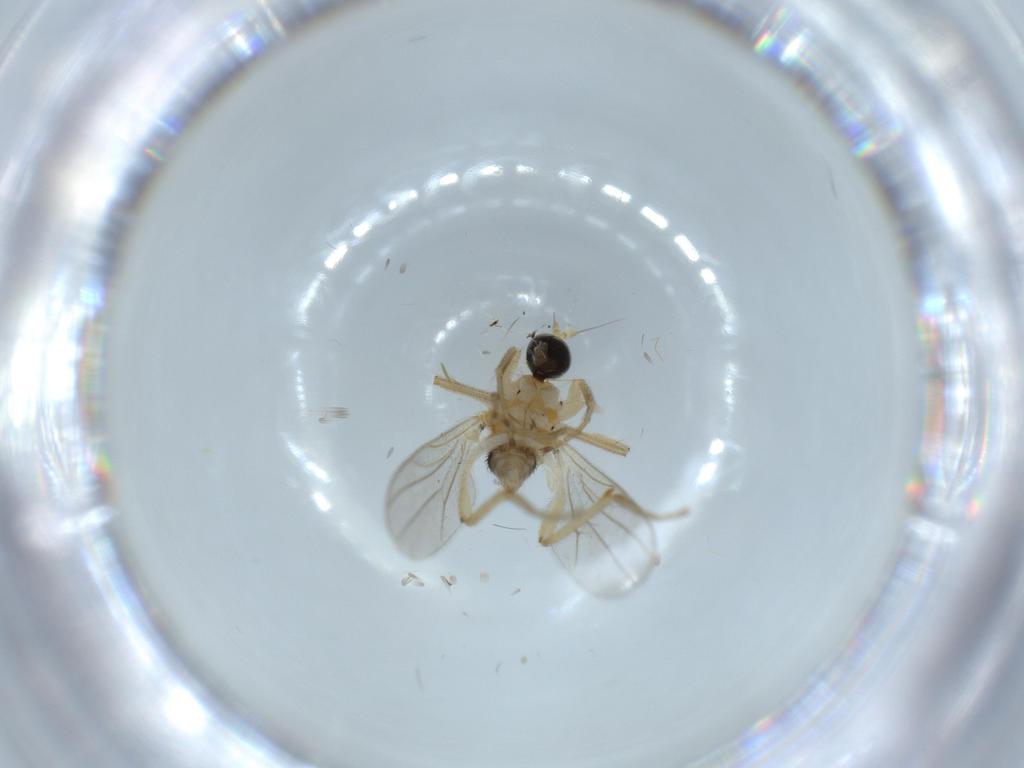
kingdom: Animalia
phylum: Arthropoda
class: Insecta
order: Diptera
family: Hybotidae
